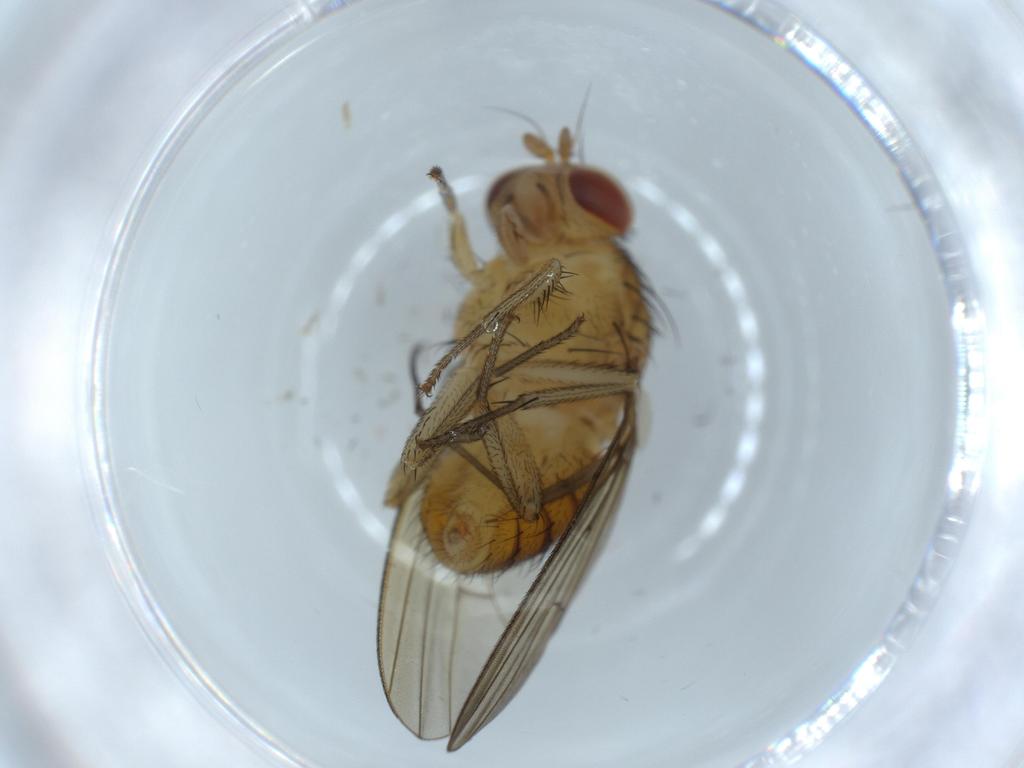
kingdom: Animalia
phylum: Arthropoda
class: Insecta
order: Diptera
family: Sciaridae
